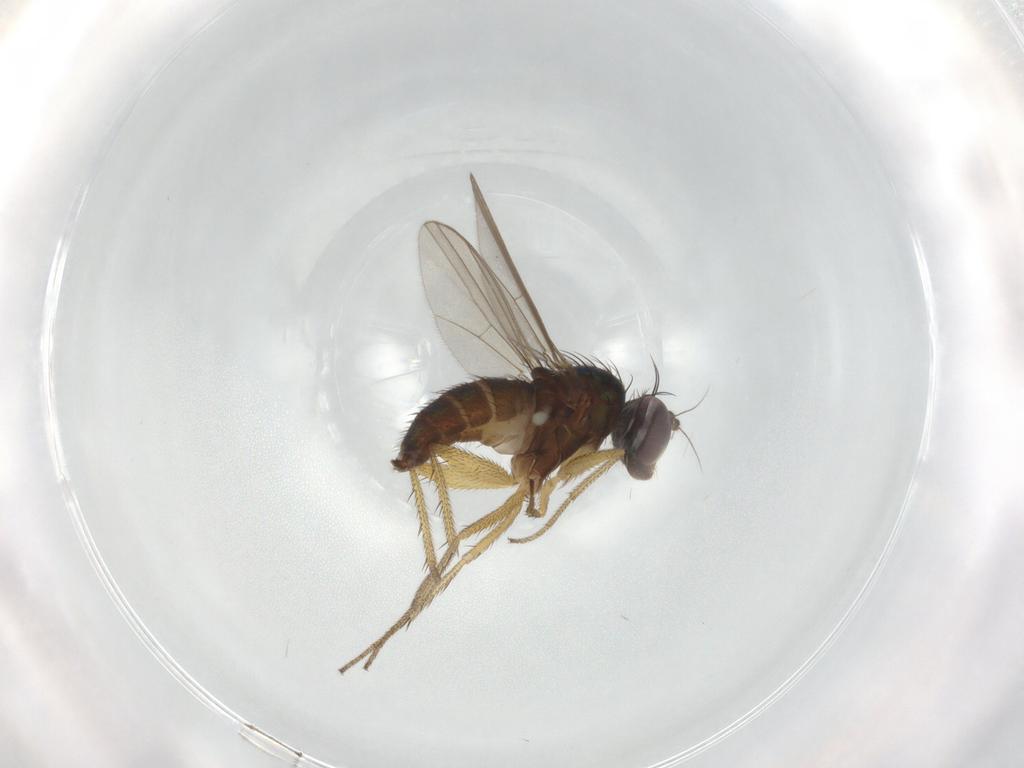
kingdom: Animalia
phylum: Arthropoda
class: Insecta
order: Diptera
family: Dolichopodidae
